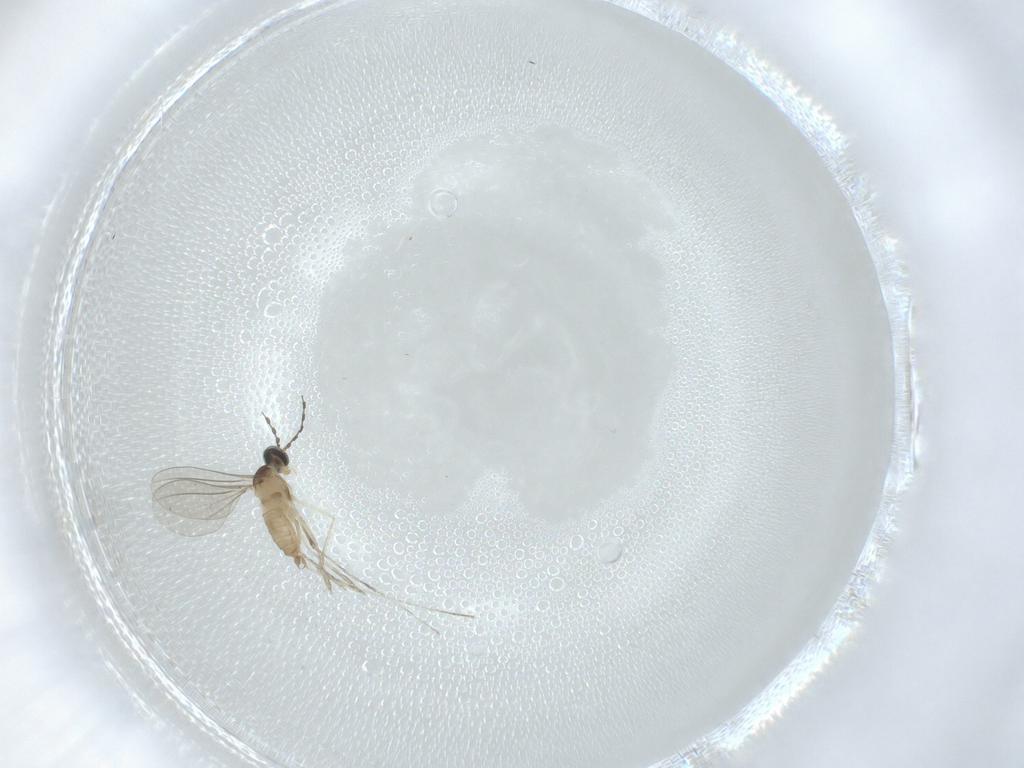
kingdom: Animalia
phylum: Arthropoda
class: Insecta
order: Diptera
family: Cecidomyiidae
